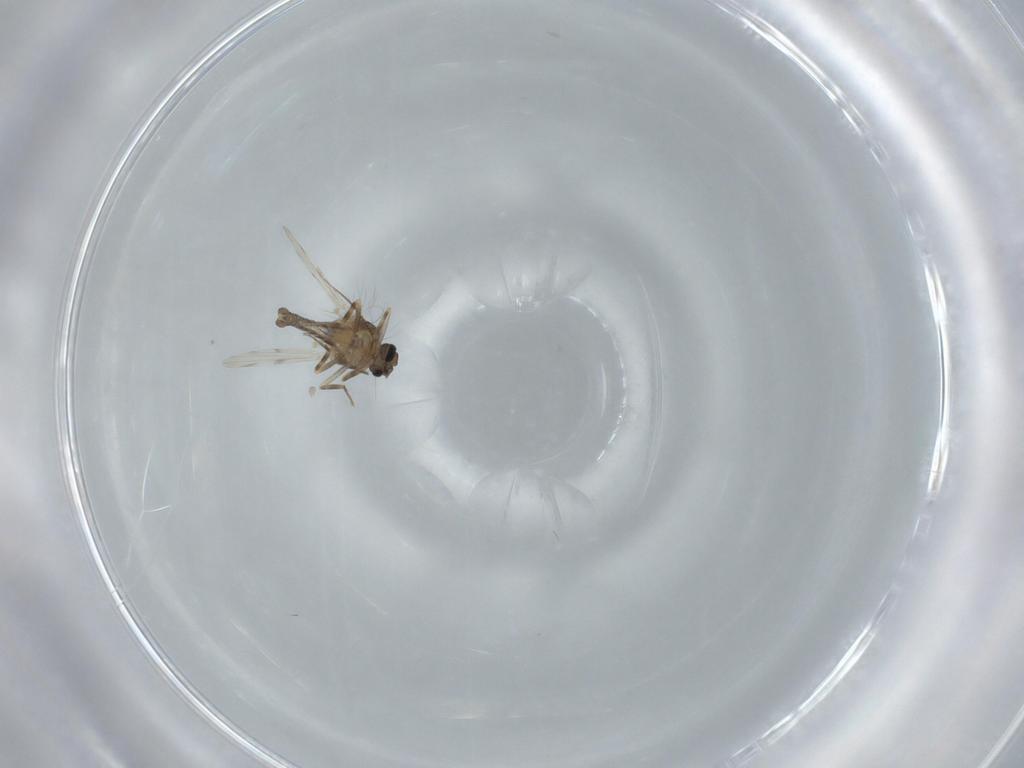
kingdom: Animalia
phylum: Arthropoda
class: Insecta
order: Diptera
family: Ceratopogonidae
